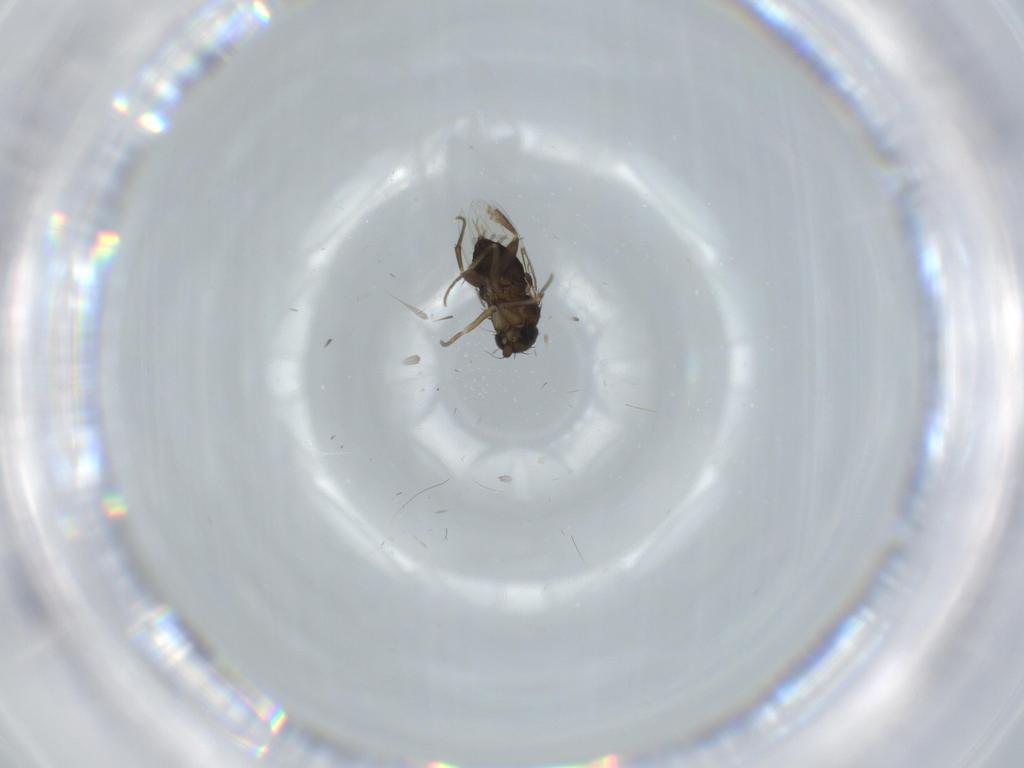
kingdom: Animalia
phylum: Arthropoda
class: Insecta
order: Diptera
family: Phoridae
